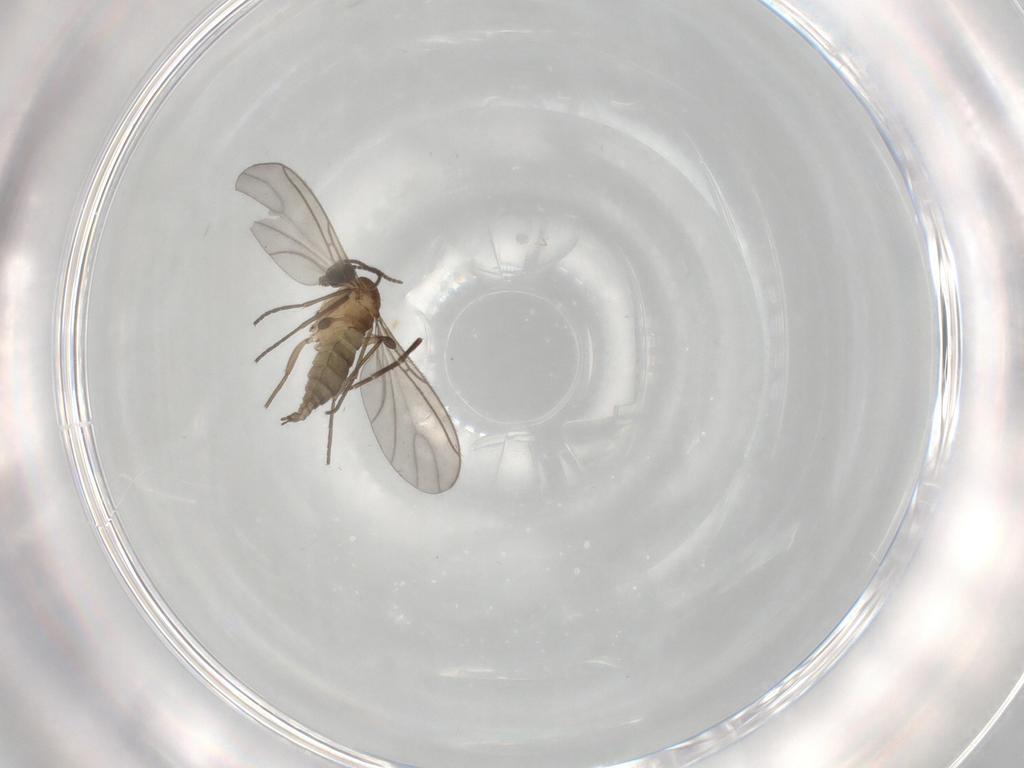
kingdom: Animalia
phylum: Arthropoda
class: Insecta
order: Diptera
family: Sciaridae
